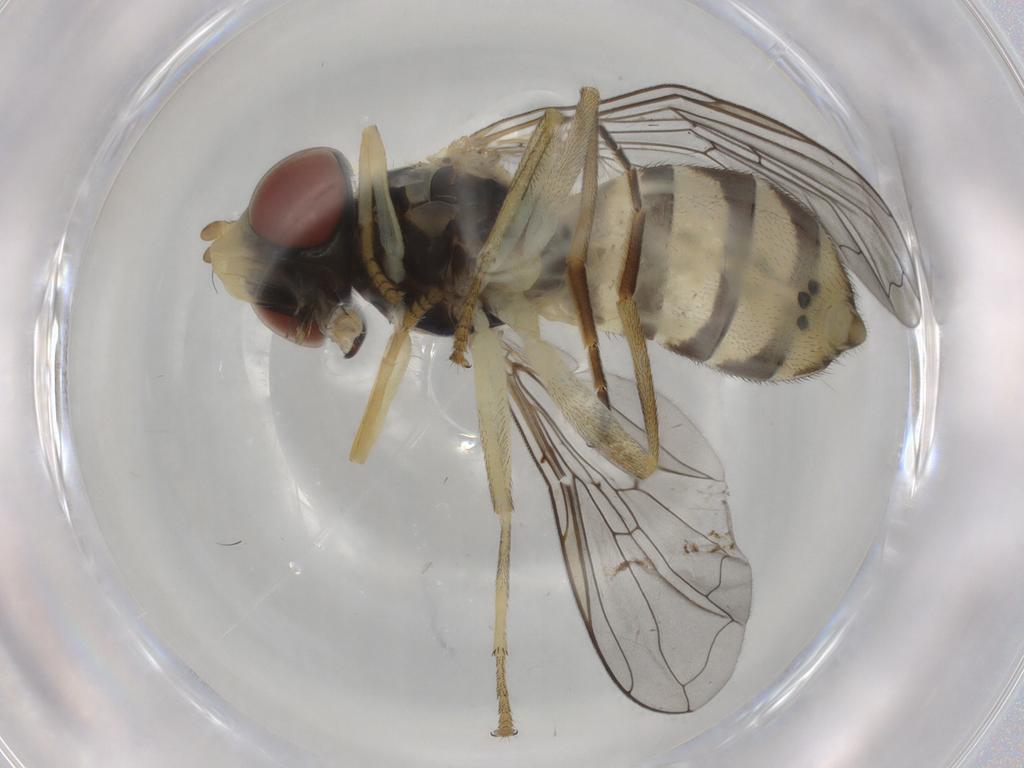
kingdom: Animalia
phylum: Arthropoda
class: Insecta
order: Diptera
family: Syrphidae
